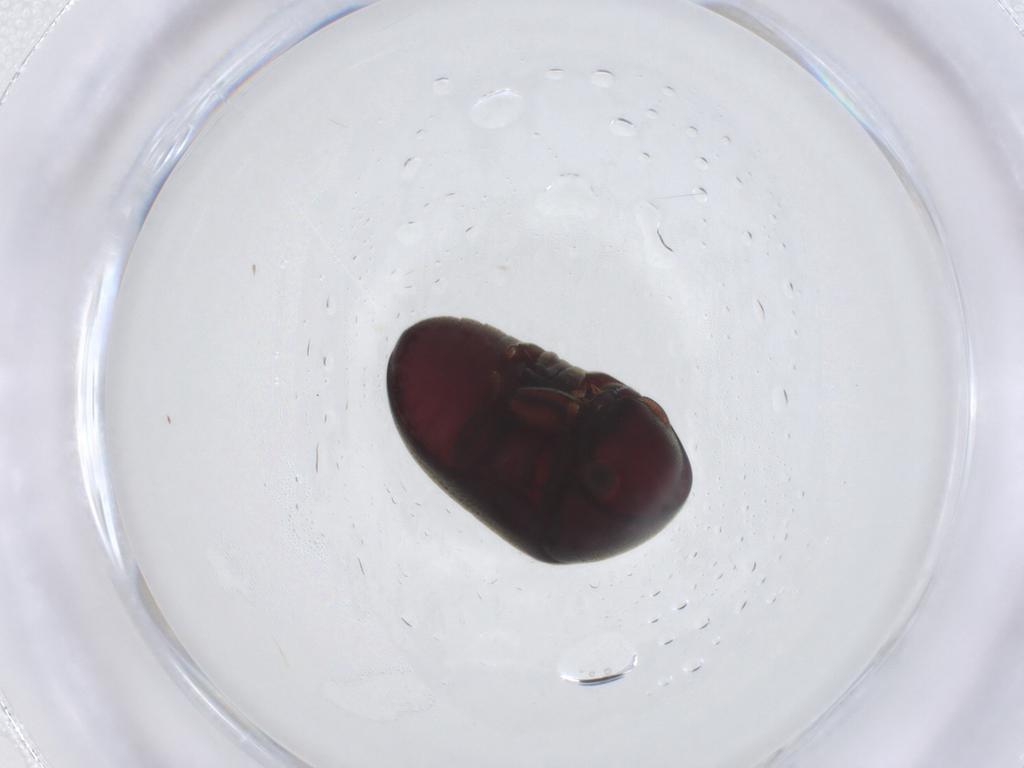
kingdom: Animalia
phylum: Arthropoda
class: Insecta
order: Coleoptera
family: Ptinidae
